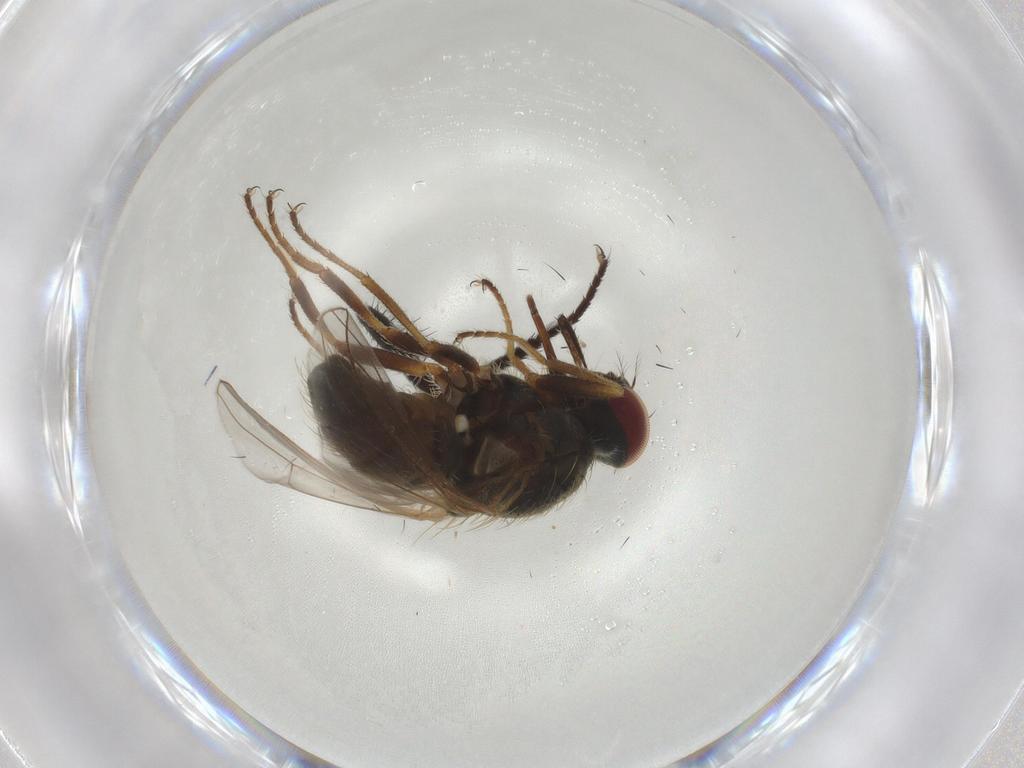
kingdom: Animalia
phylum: Arthropoda
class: Insecta
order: Diptera
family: Muscidae
